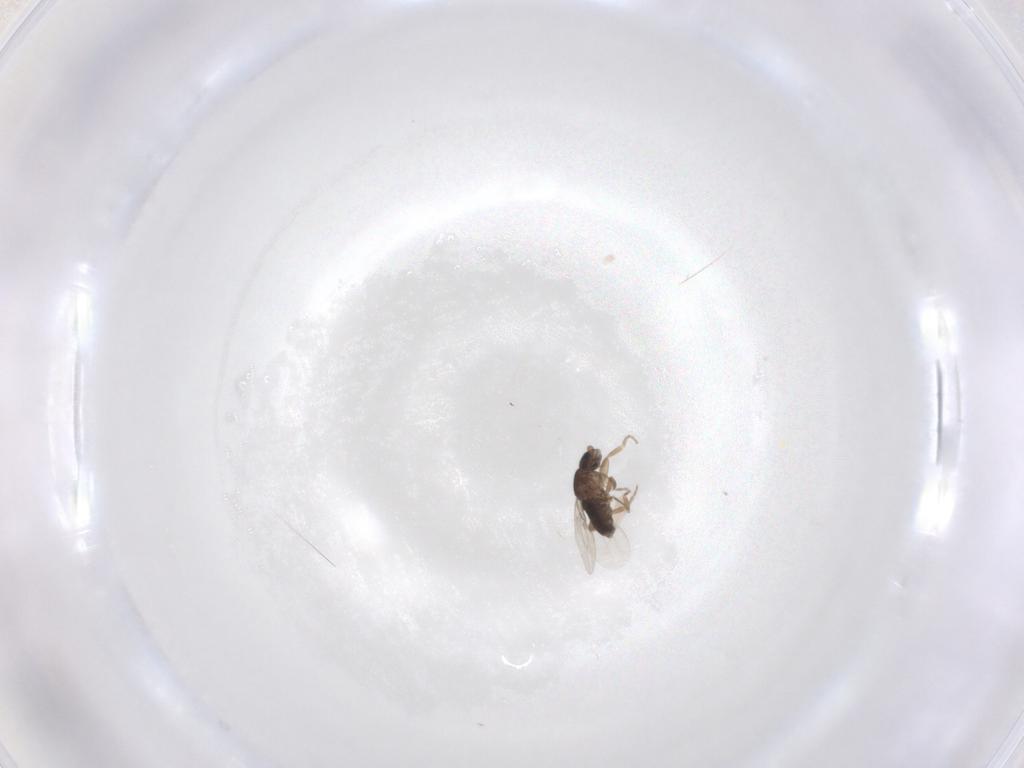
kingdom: Animalia
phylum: Arthropoda
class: Insecta
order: Diptera
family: Phoridae
